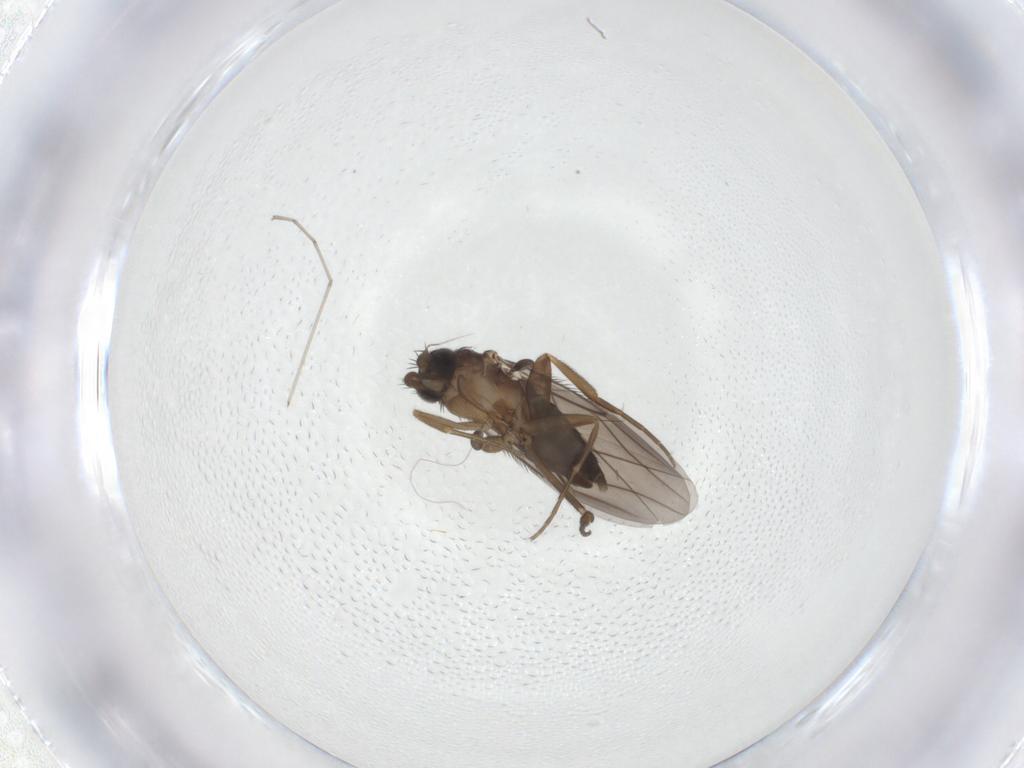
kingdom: Animalia
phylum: Arthropoda
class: Insecta
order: Diptera
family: Phoridae
